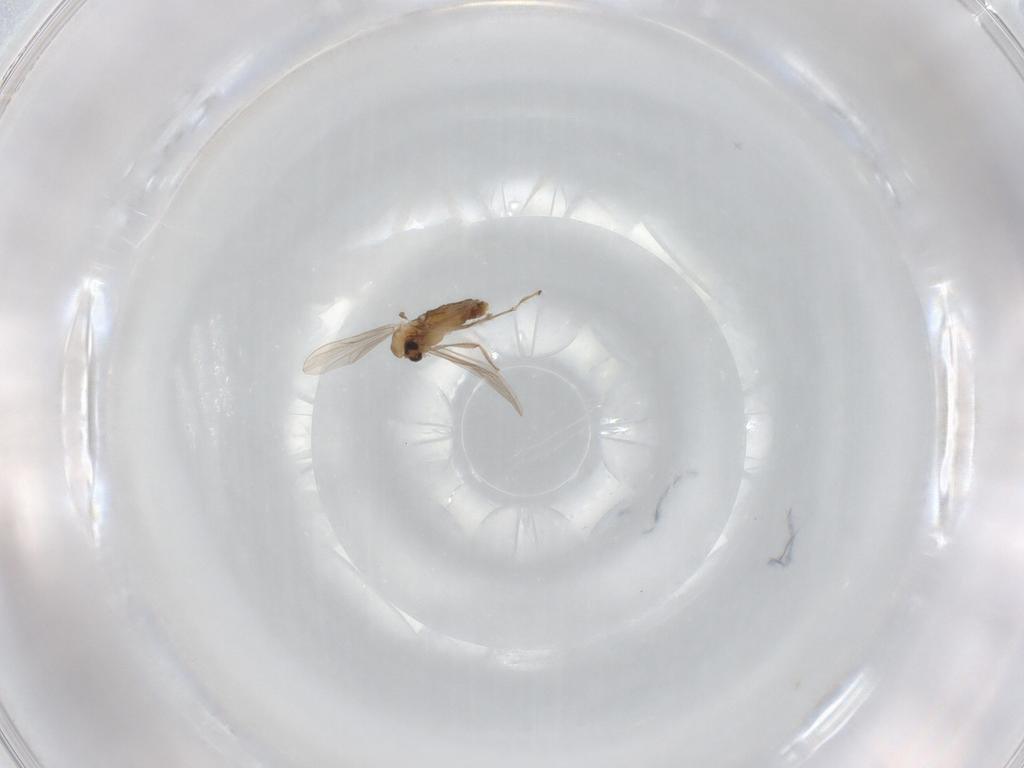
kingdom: Animalia
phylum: Arthropoda
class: Insecta
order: Diptera
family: Chironomidae
